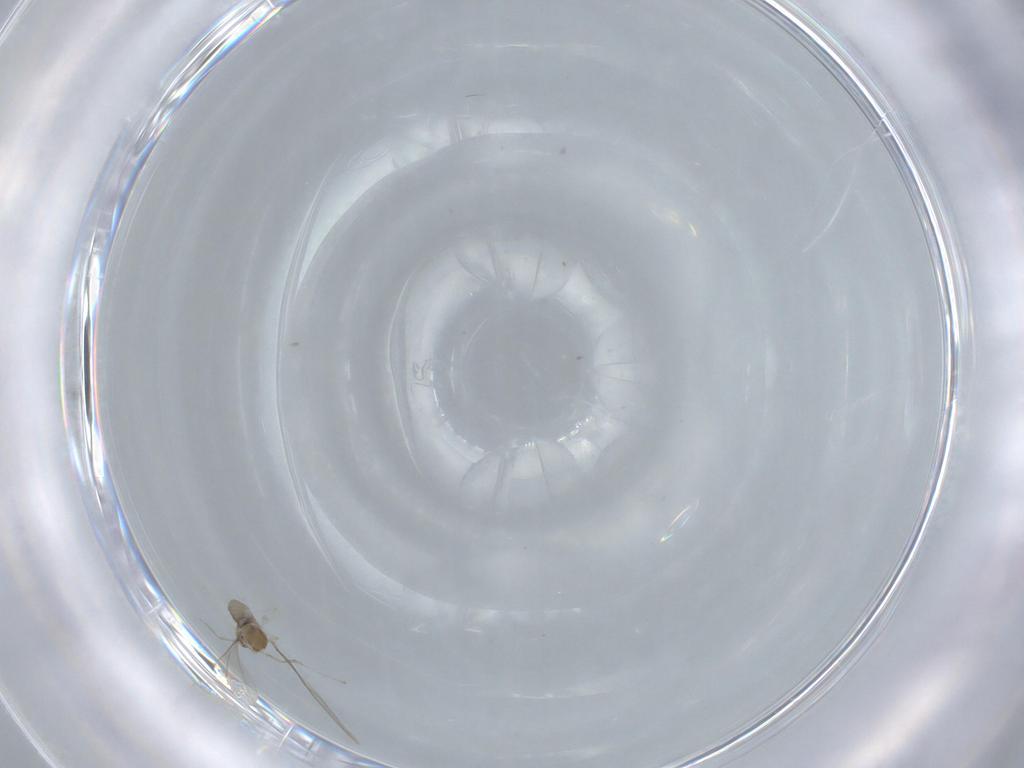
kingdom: Animalia
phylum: Arthropoda
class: Insecta
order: Diptera
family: Cecidomyiidae
